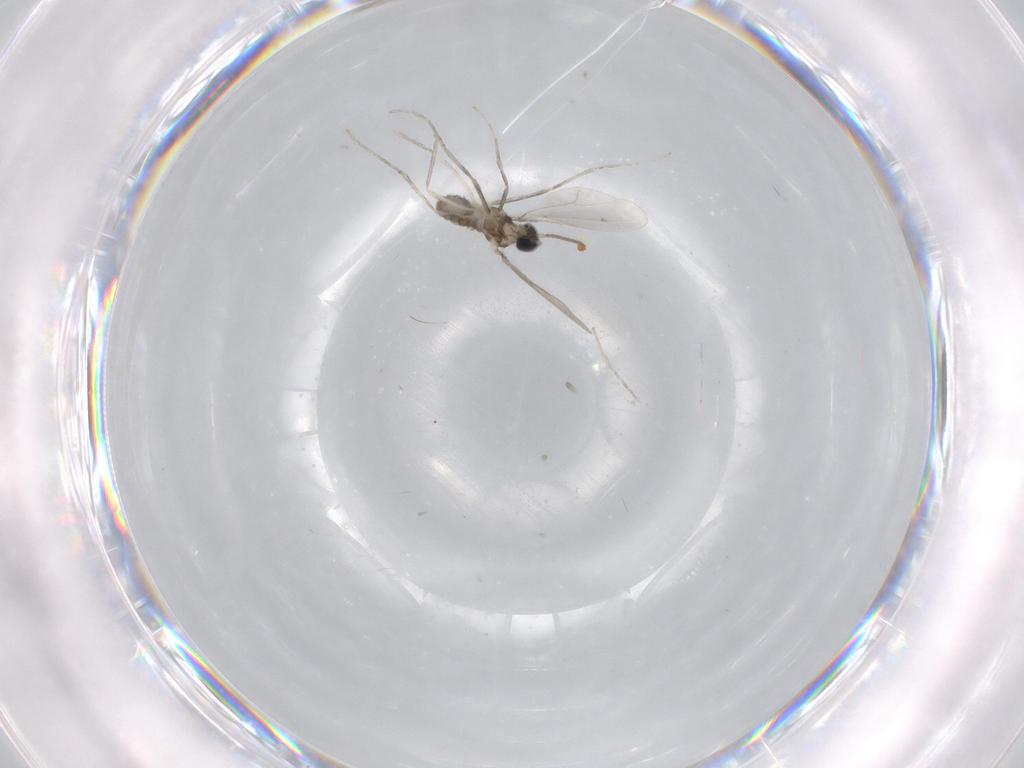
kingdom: Animalia
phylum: Arthropoda
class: Insecta
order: Diptera
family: Cecidomyiidae
